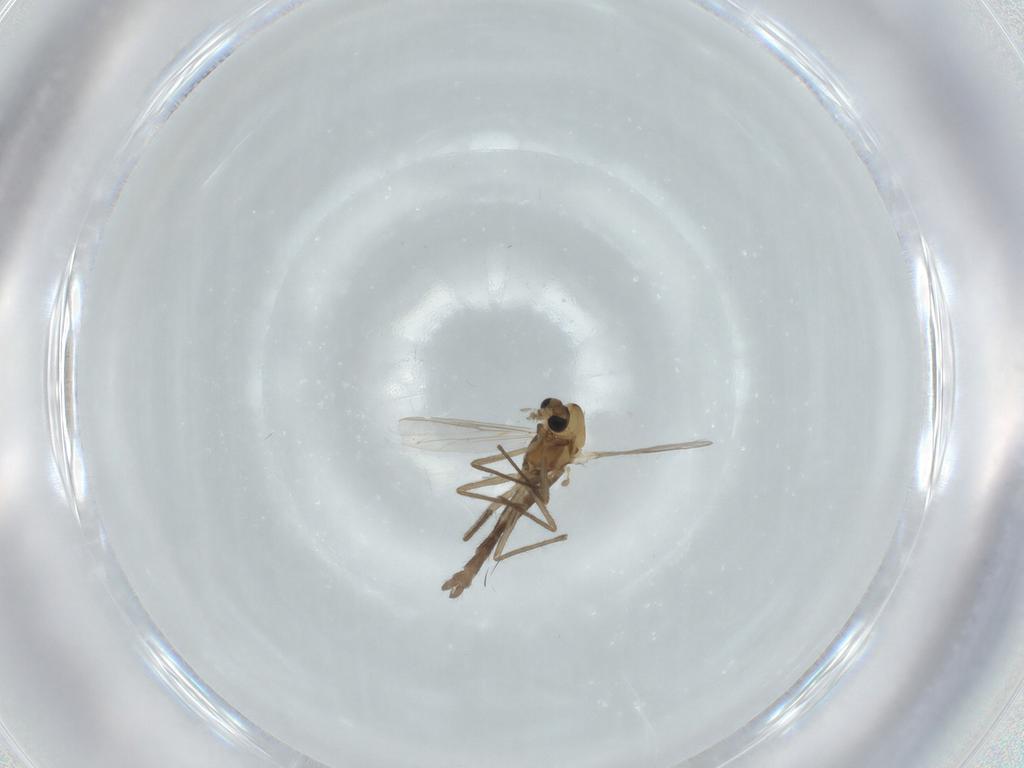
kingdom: Animalia
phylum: Arthropoda
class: Insecta
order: Diptera
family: Chironomidae
